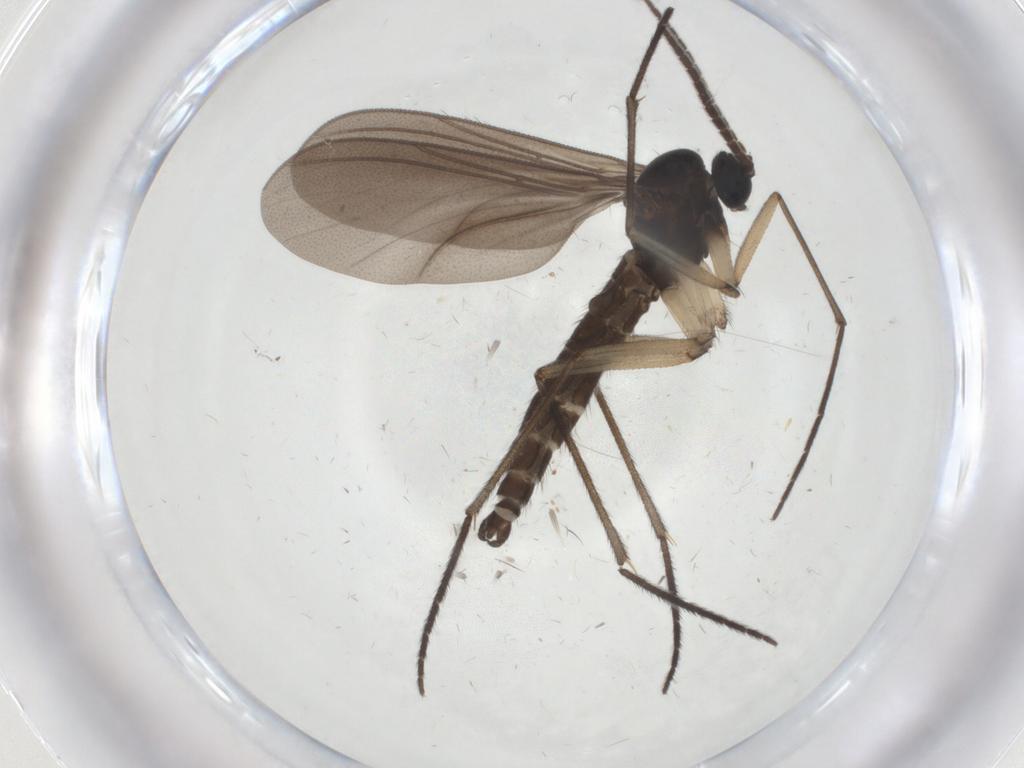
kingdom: Animalia
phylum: Arthropoda
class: Insecta
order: Diptera
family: Sciaridae
